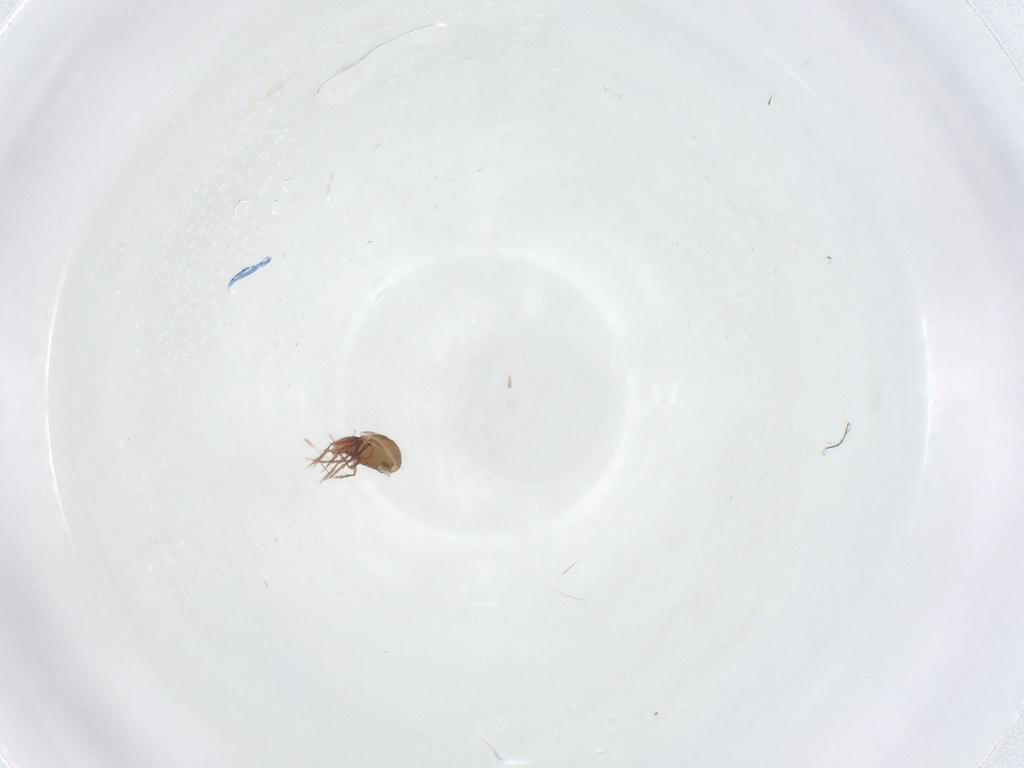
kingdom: Animalia
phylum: Arthropoda
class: Arachnida
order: Sarcoptiformes
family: Oppiidae
